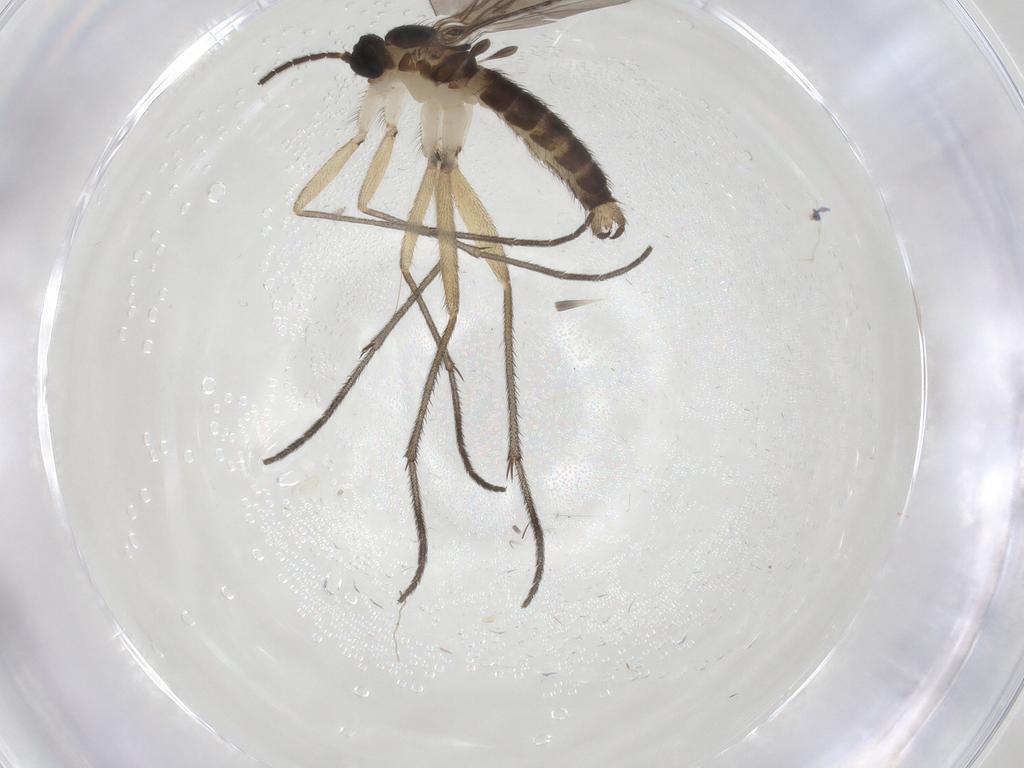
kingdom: Animalia
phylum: Arthropoda
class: Insecta
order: Diptera
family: Sciaridae
